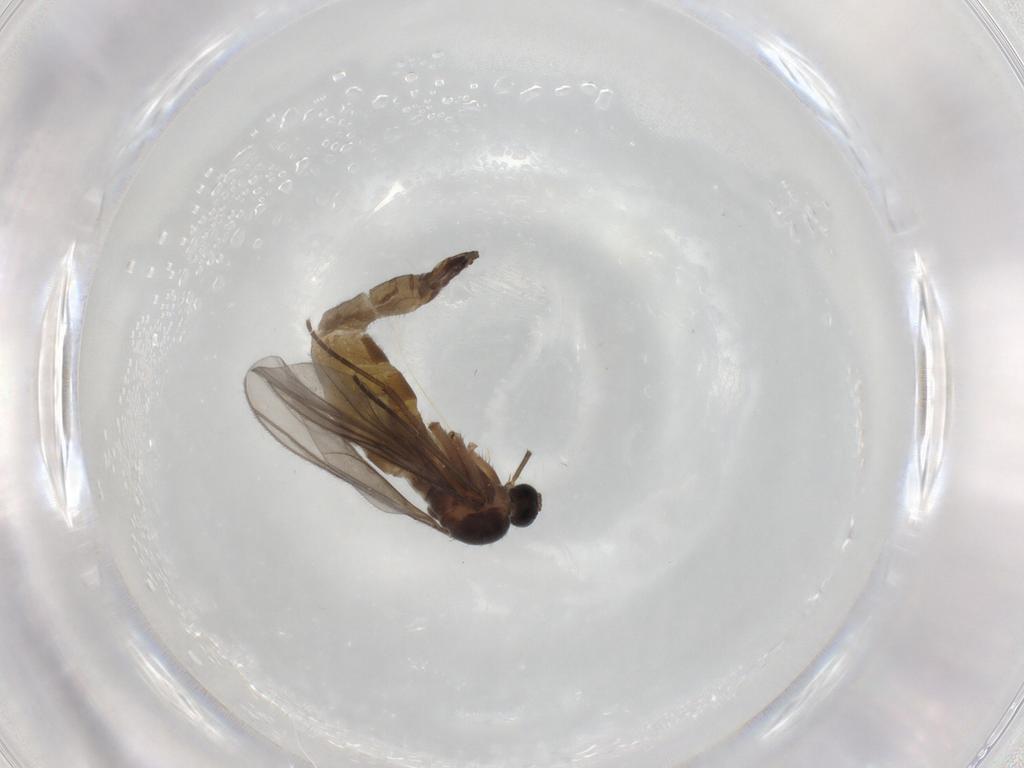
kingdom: Animalia
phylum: Arthropoda
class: Insecta
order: Diptera
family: Sciaridae
